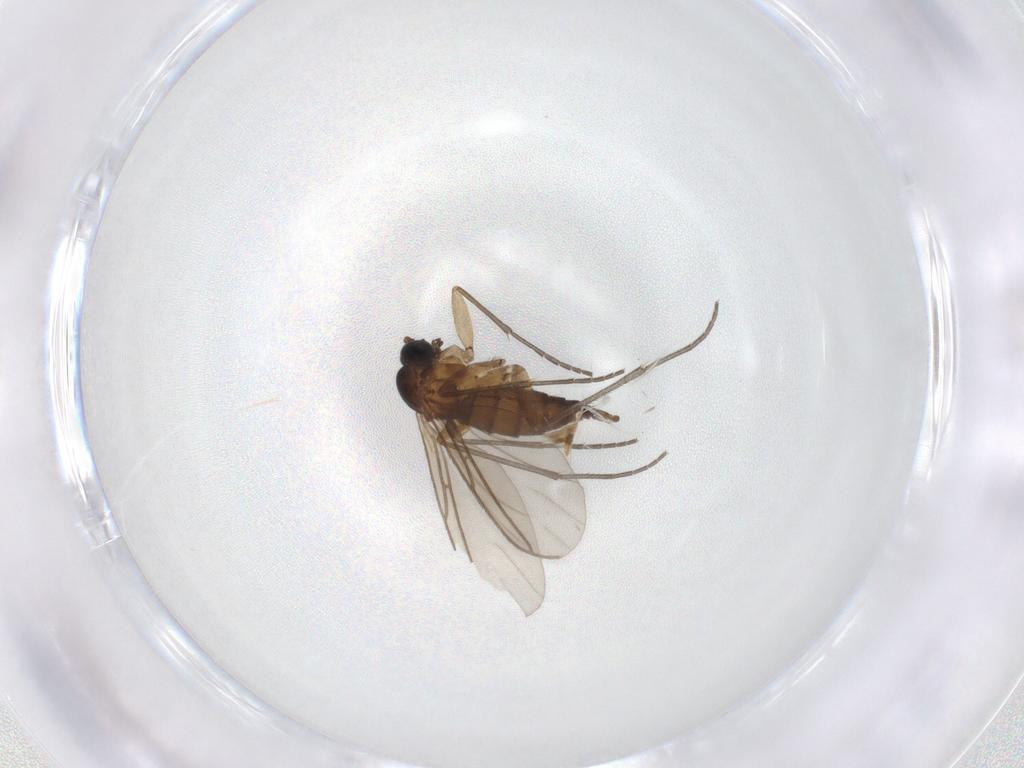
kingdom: Animalia
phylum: Arthropoda
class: Insecta
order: Diptera
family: Sciaridae
